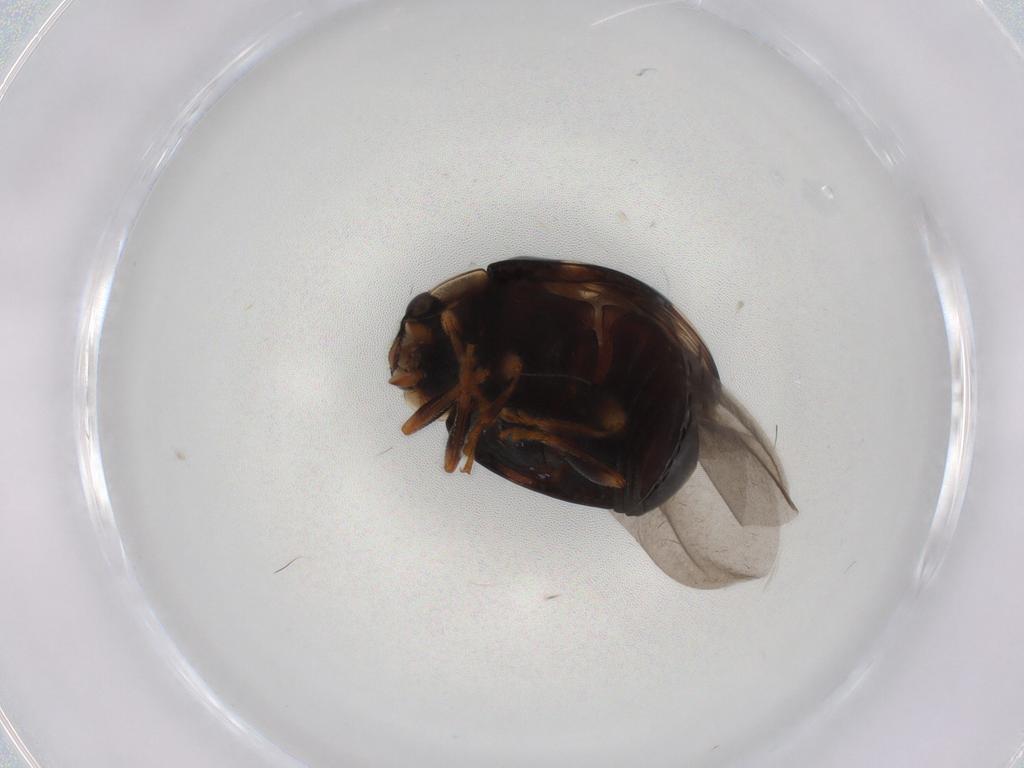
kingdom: Animalia
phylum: Arthropoda
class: Insecta
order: Coleoptera
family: Coccinellidae
